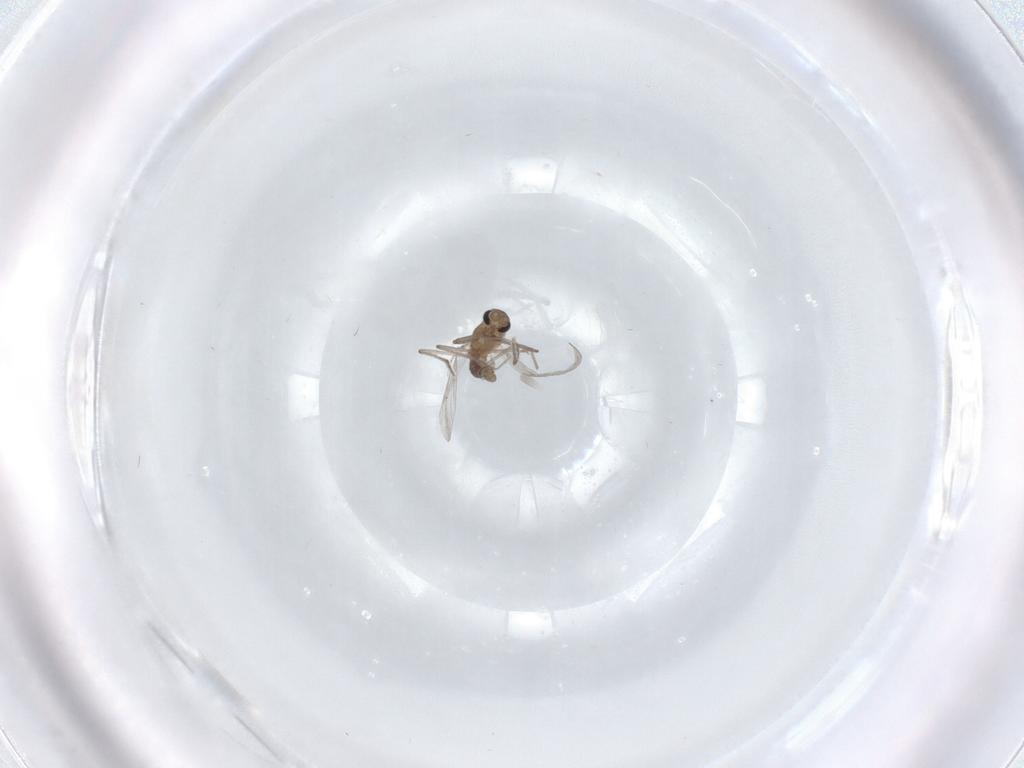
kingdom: Animalia
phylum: Arthropoda
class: Insecta
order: Diptera
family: Chironomidae
